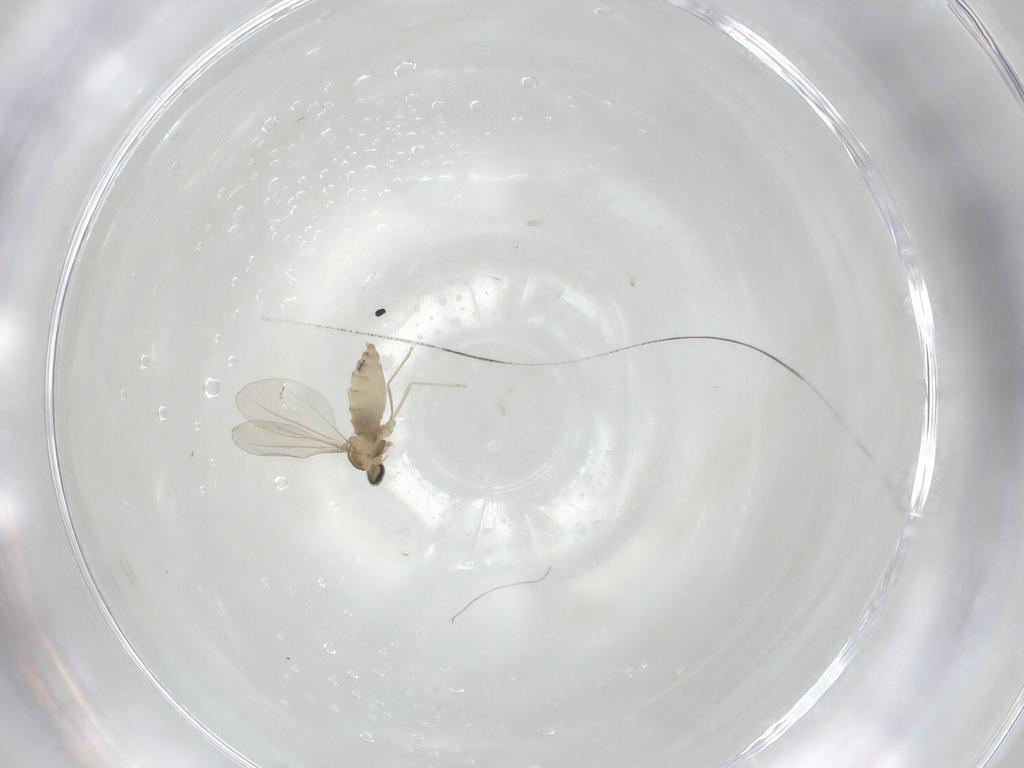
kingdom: Animalia
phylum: Arthropoda
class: Insecta
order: Diptera
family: Cecidomyiidae
